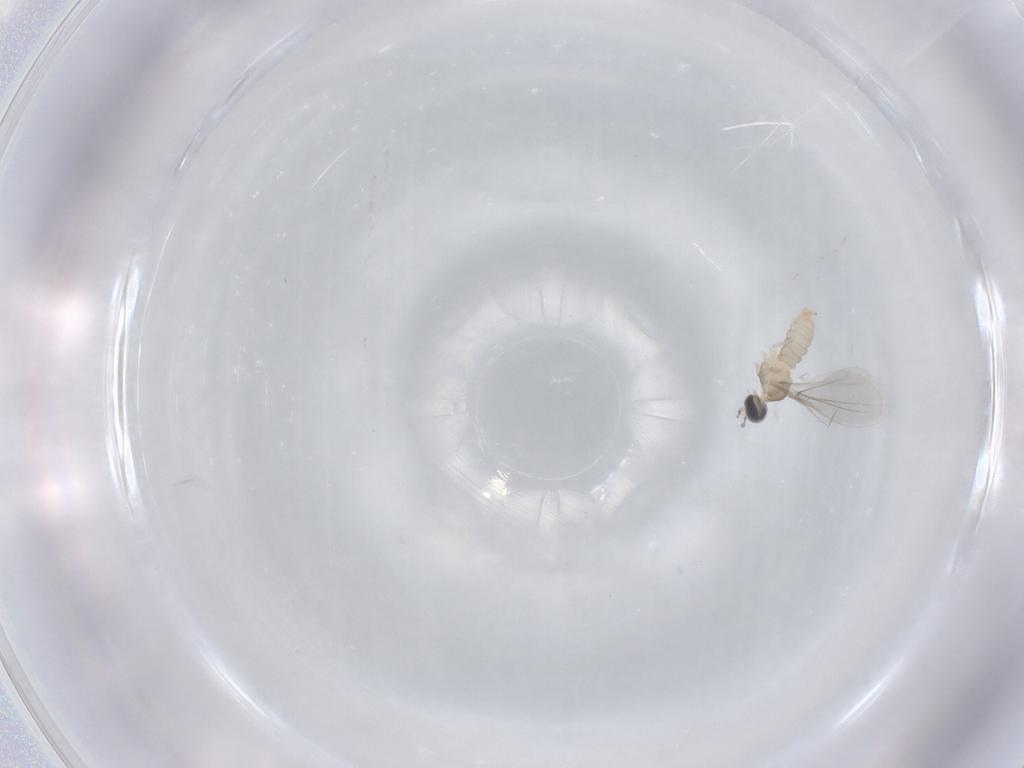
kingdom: Animalia
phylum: Arthropoda
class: Insecta
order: Diptera
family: Cecidomyiidae
